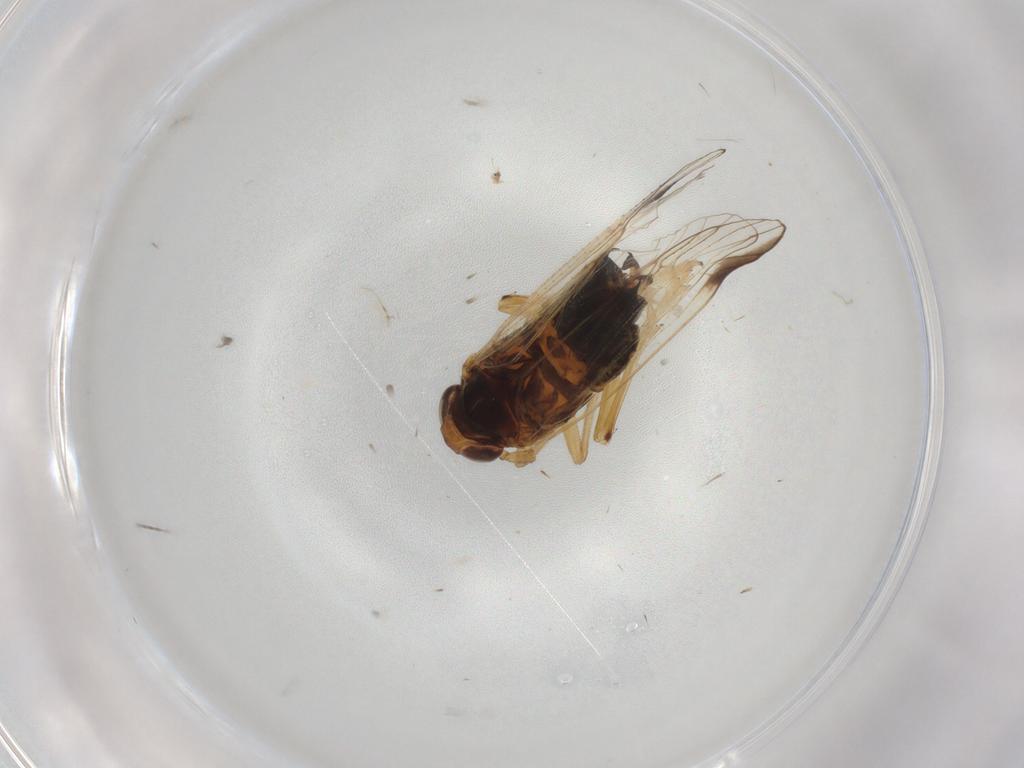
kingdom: Animalia
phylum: Arthropoda
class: Insecta
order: Hemiptera
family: Delphacidae
